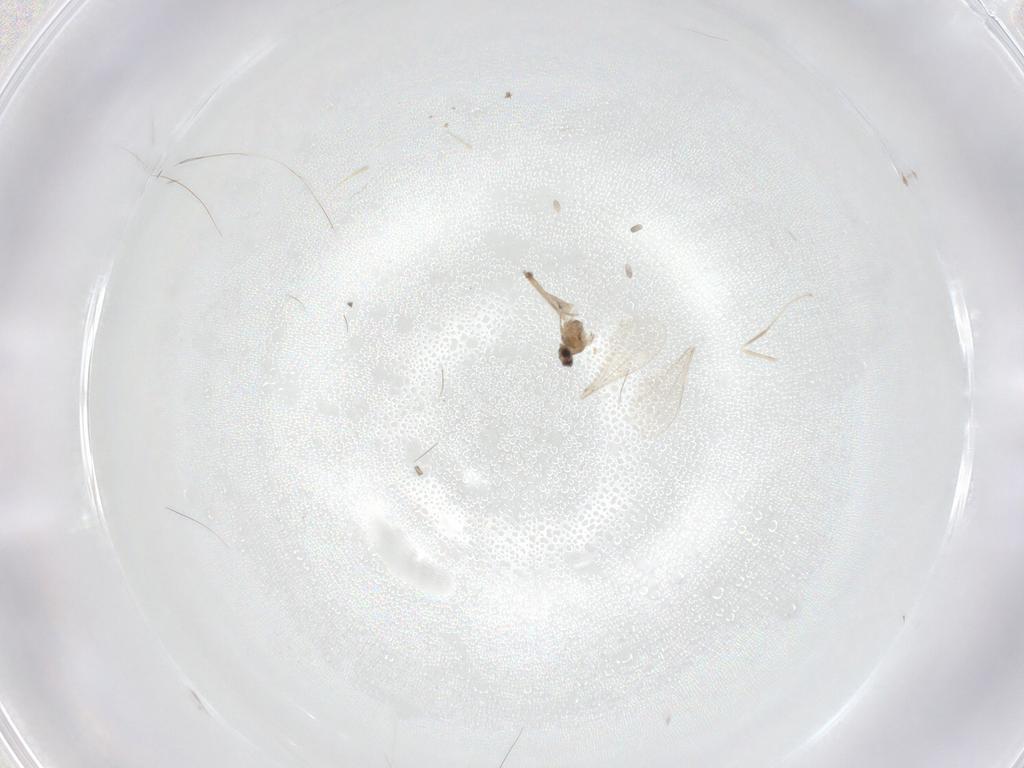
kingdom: Animalia
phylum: Arthropoda
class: Insecta
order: Diptera
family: Cecidomyiidae
